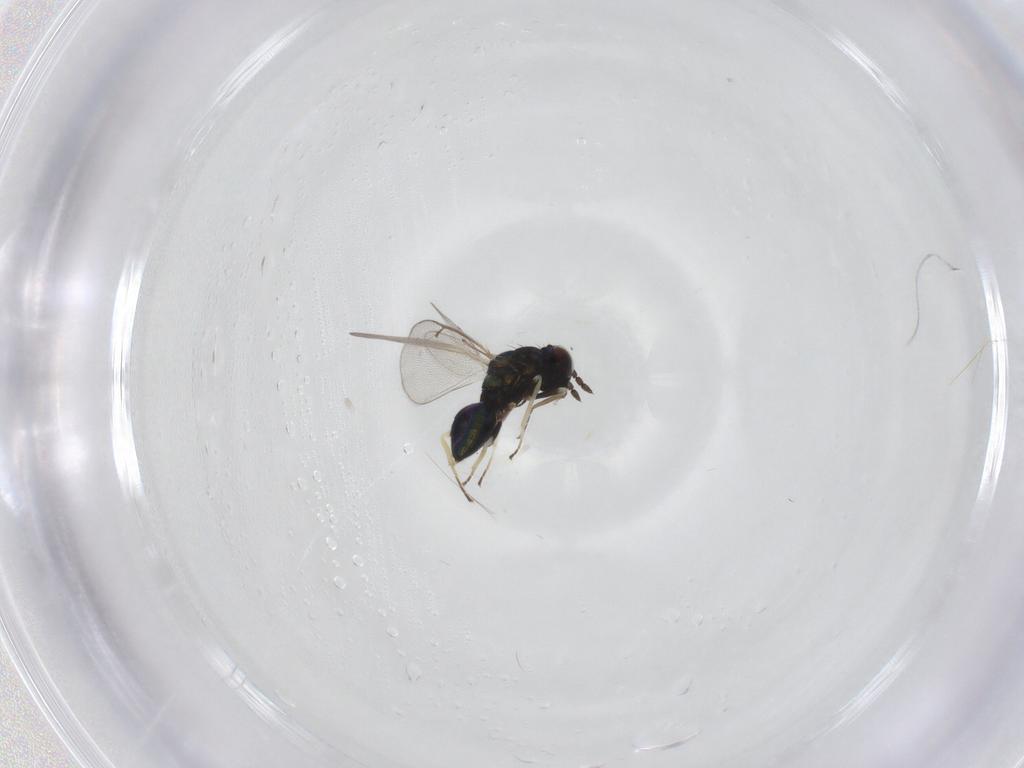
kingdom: Animalia
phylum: Arthropoda
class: Insecta
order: Hymenoptera
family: Eulophidae
